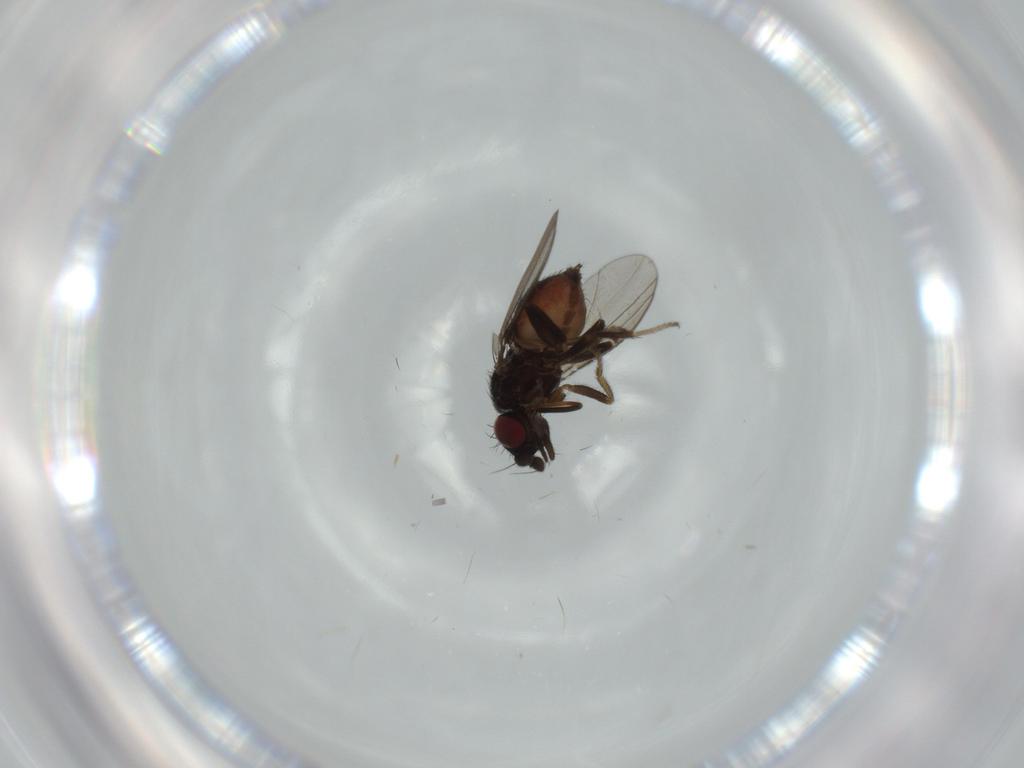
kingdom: Animalia
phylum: Arthropoda
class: Insecta
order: Diptera
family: Milichiidae
